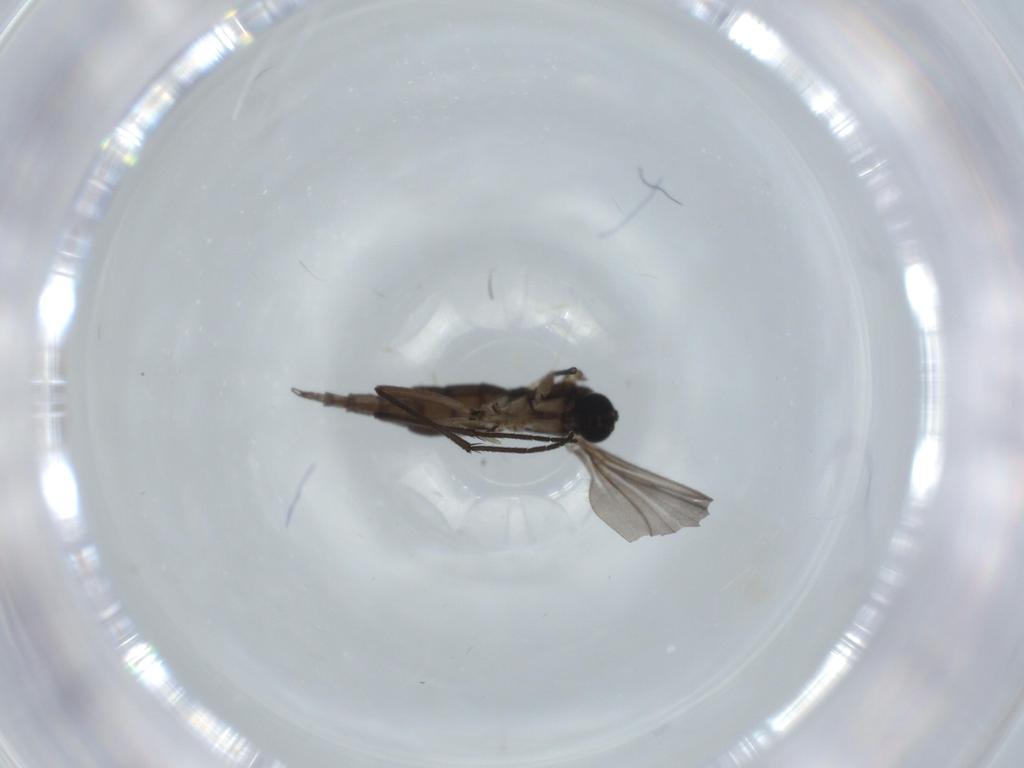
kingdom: Animalia
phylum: Arthropoda
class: Insecta
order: Diptera
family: Sciaridae
